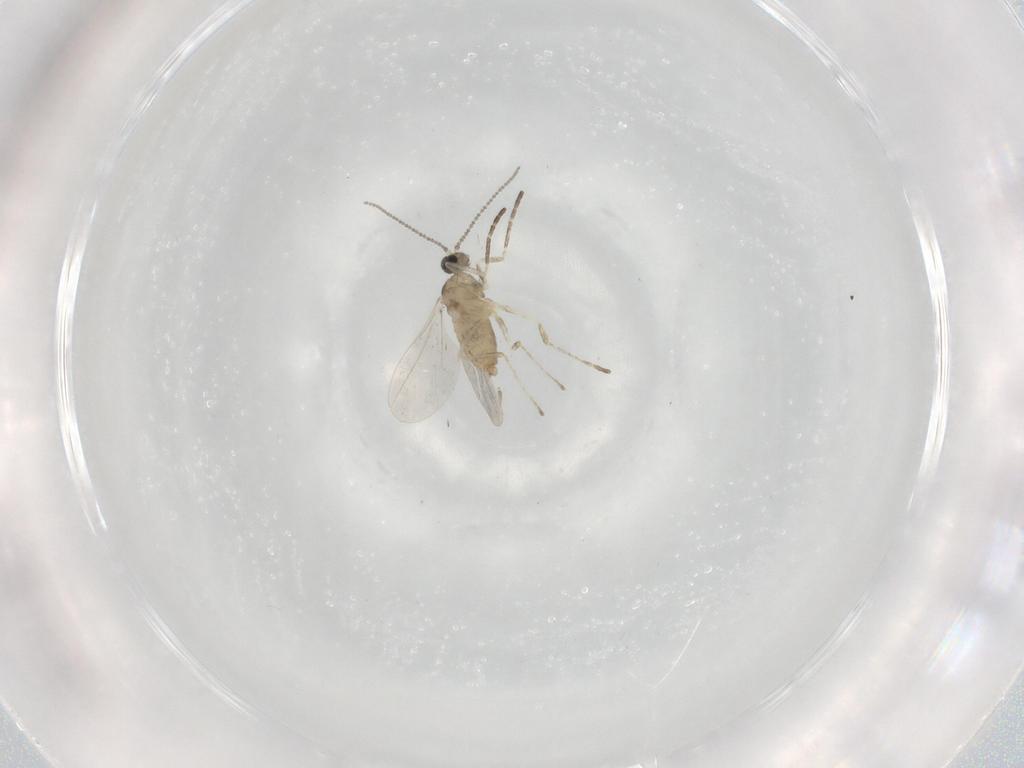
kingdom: Animalia
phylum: Arthropoda
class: Insecta
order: Diptera
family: Cecidomyiidae
